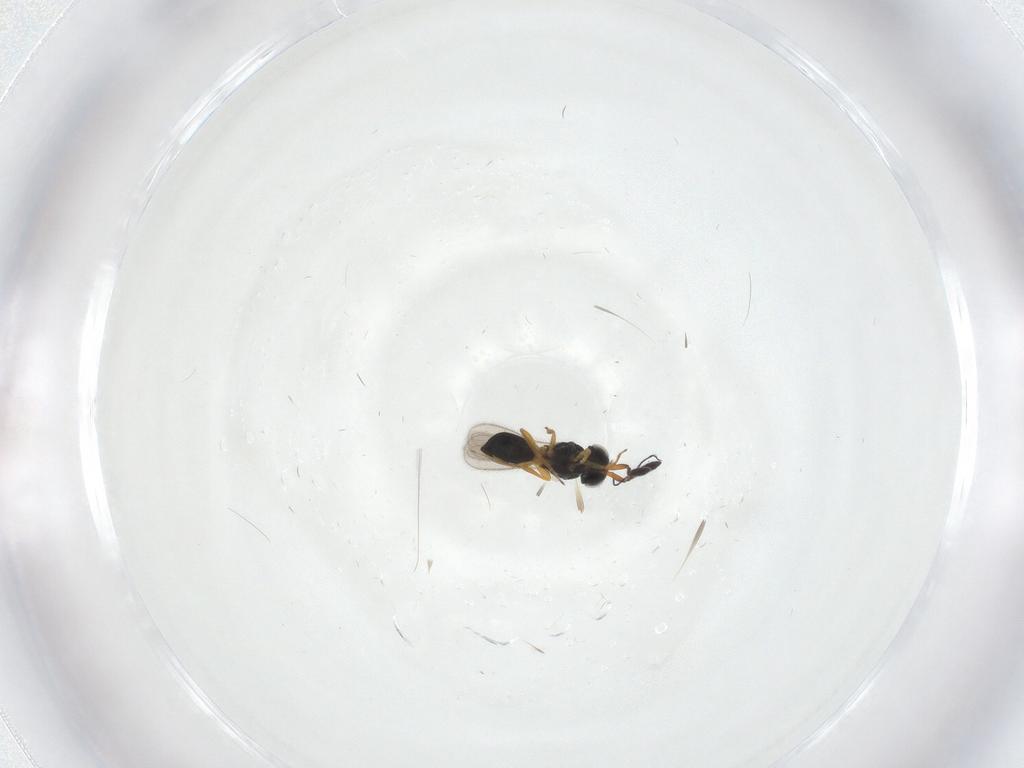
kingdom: Animalia
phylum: Arthropoda
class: Insecta
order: Hymenoptera
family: Scelionidae
